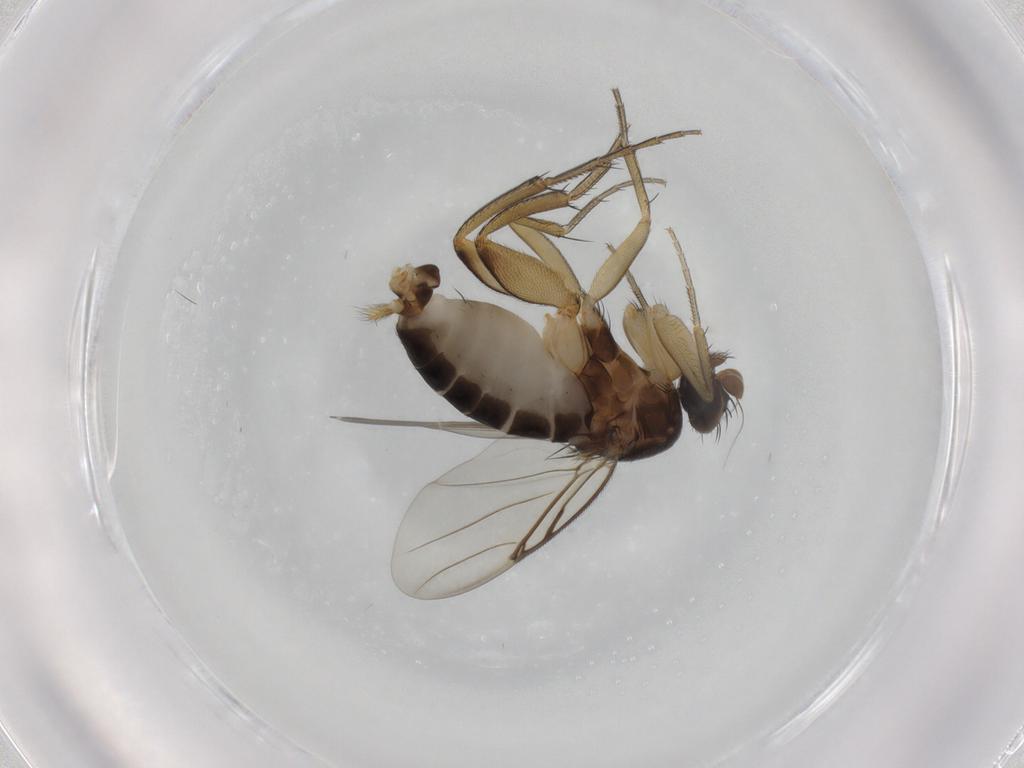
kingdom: Animalia
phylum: Arthropoda
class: Insecta
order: Diptera
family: Phoridae
